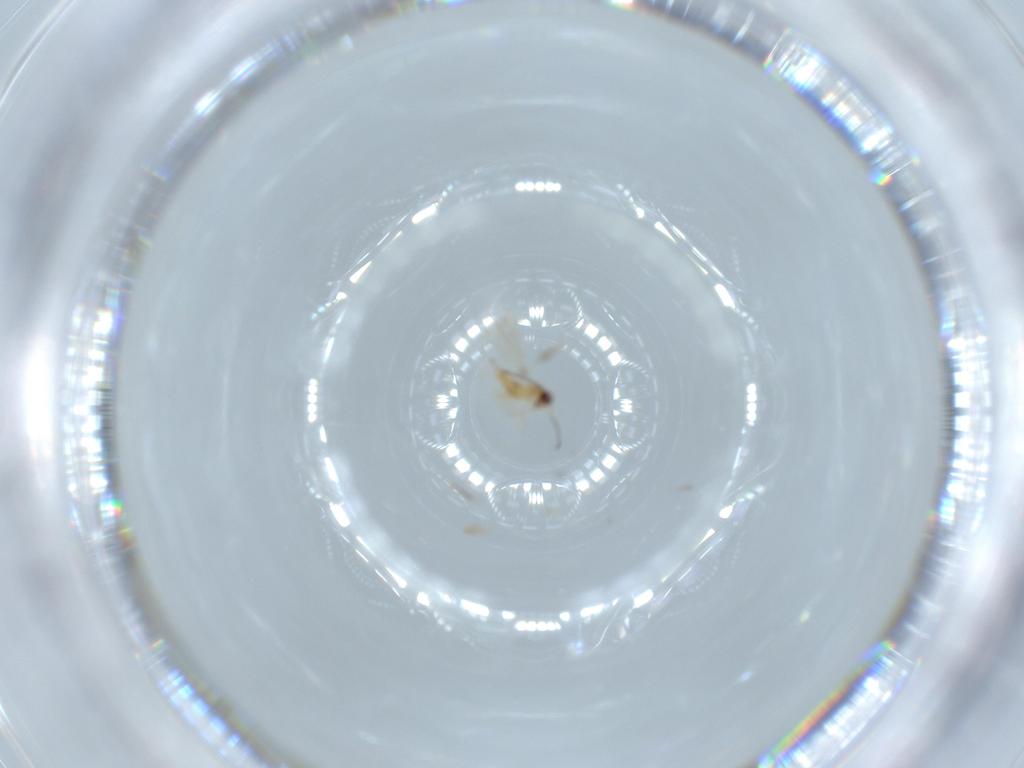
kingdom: Animalia
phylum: Arthropoda
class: Insecta
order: Hymenoptera
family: Mymaridae
